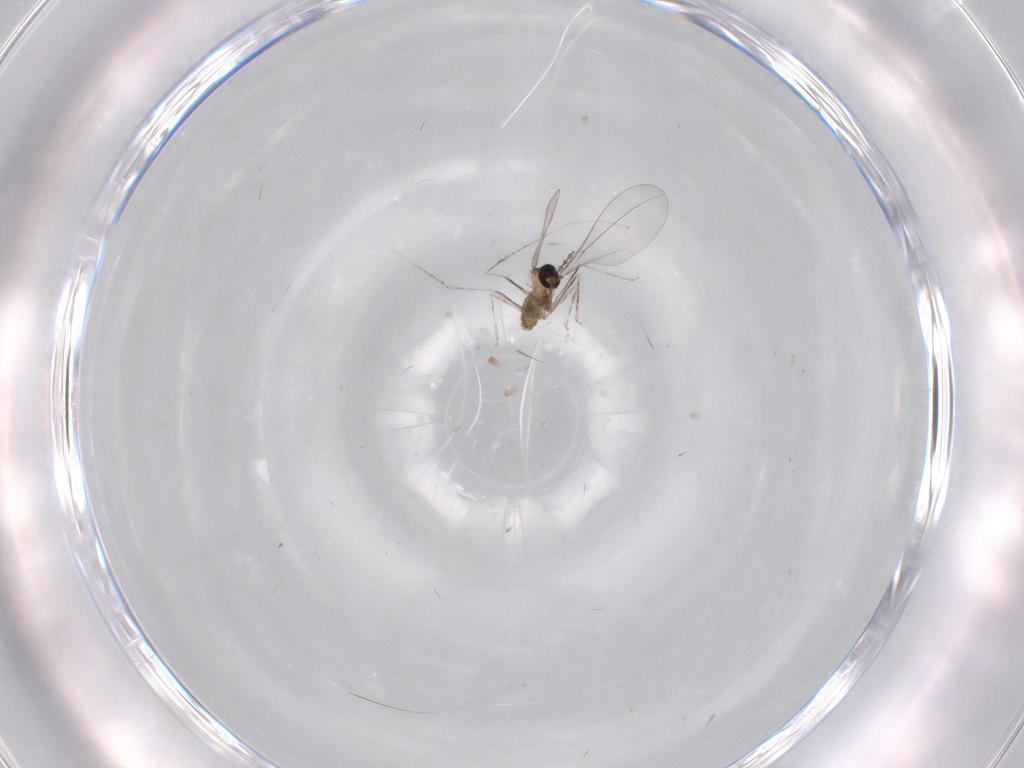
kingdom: Animalia
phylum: Arthropoda
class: Insecta
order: Diptera
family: Cecidomyiidae
